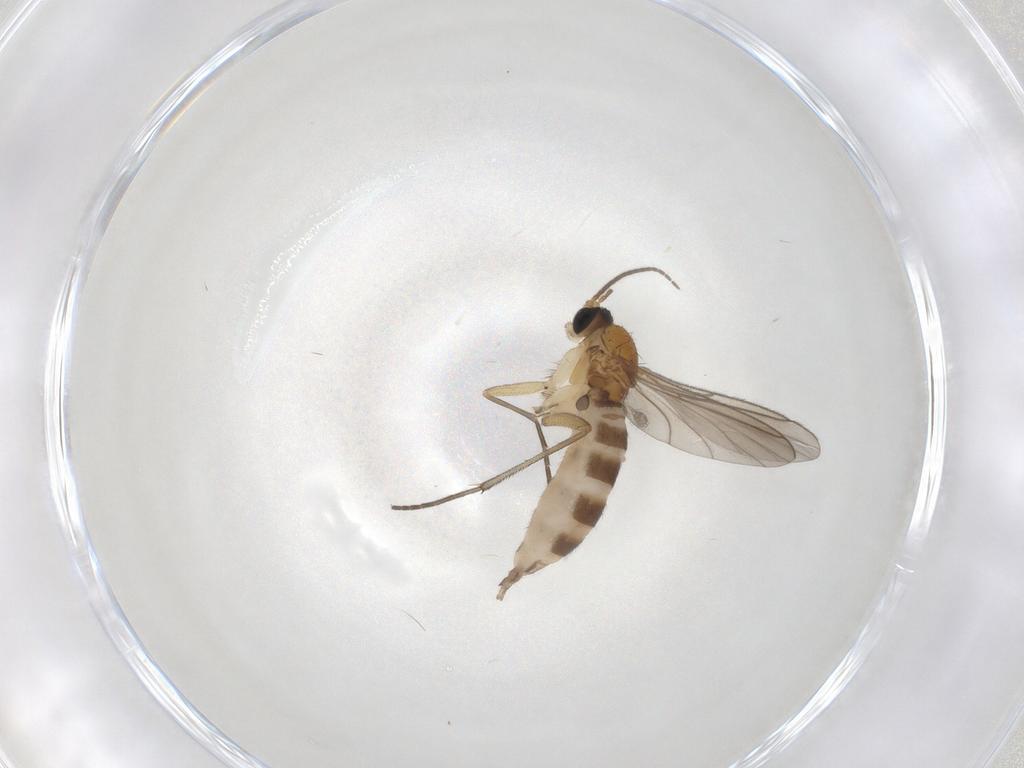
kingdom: Animalia
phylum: Arthropoda
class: Insecta
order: Diptera
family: Sciaridae
